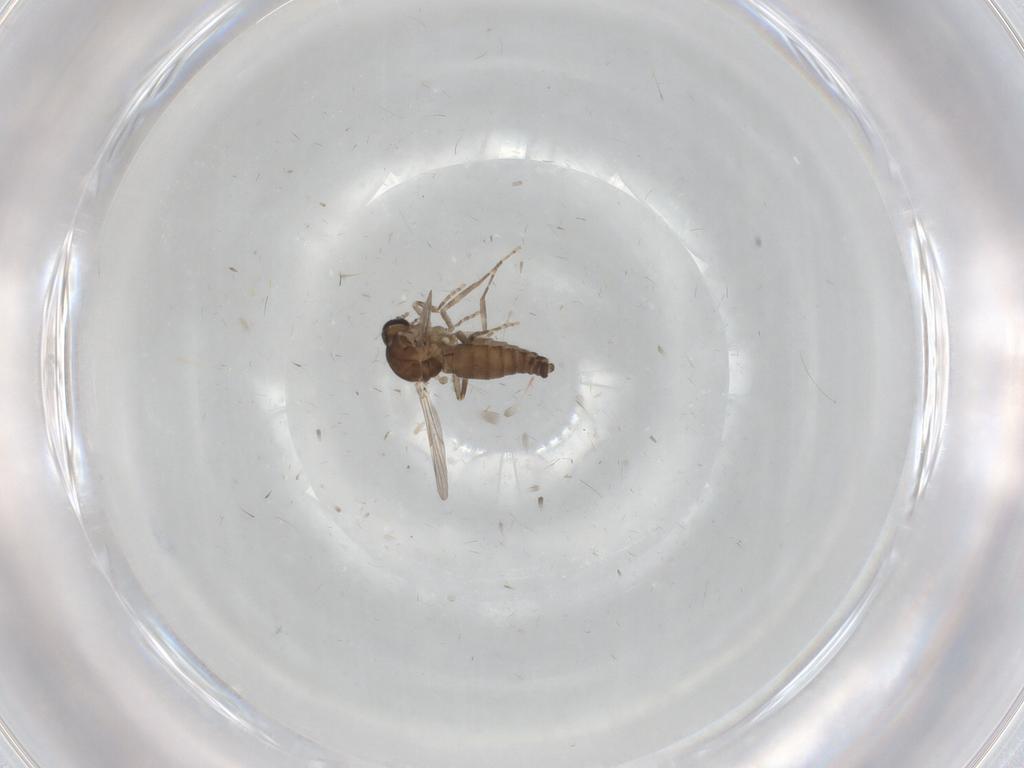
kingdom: Animalia
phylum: Arthropoda
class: Insecta
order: Diptera
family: Ceratopogonidae
